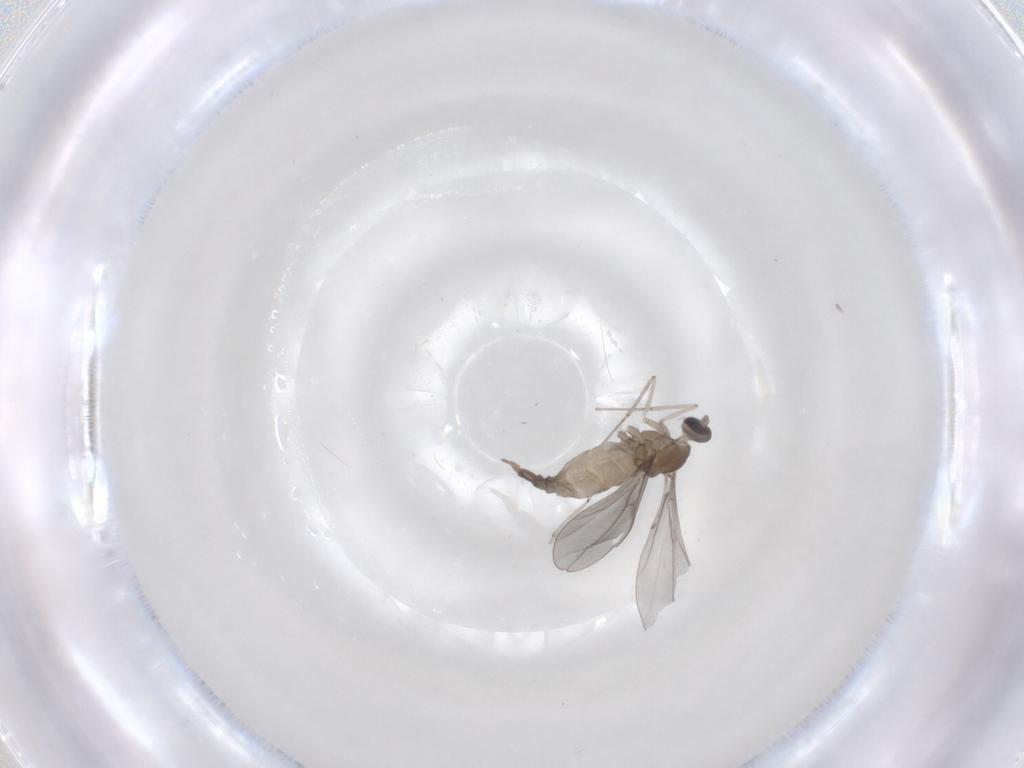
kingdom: Animalia
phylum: Arthropoda
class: Insecta
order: Diptera
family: Cecidomyiidae
